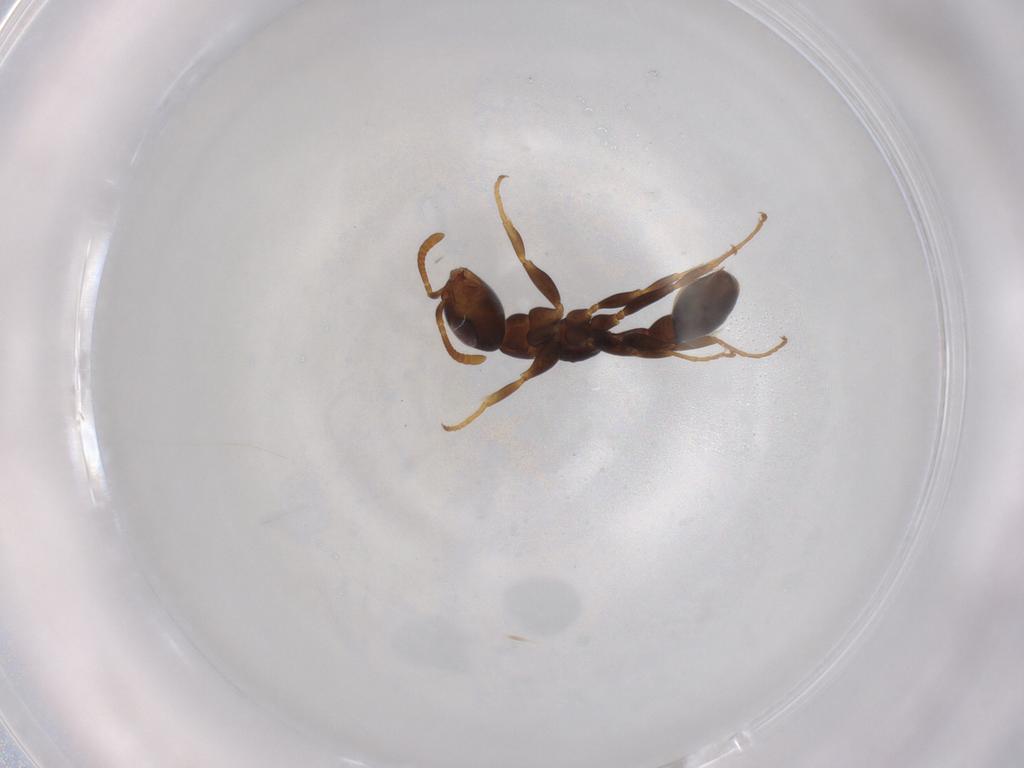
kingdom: Animalia
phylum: Arthropoda
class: Insecta
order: Hymenoptera
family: Formicidae
